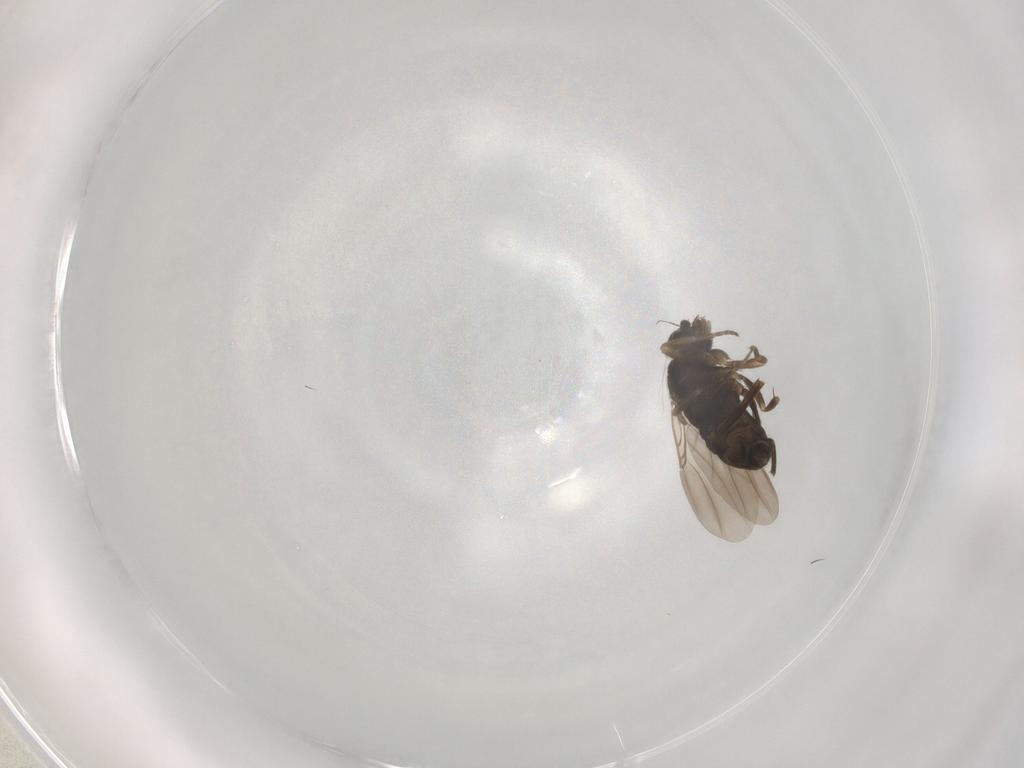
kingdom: Animalia
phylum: Arthropoda
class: Insecta
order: Diptera
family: Phoridae
